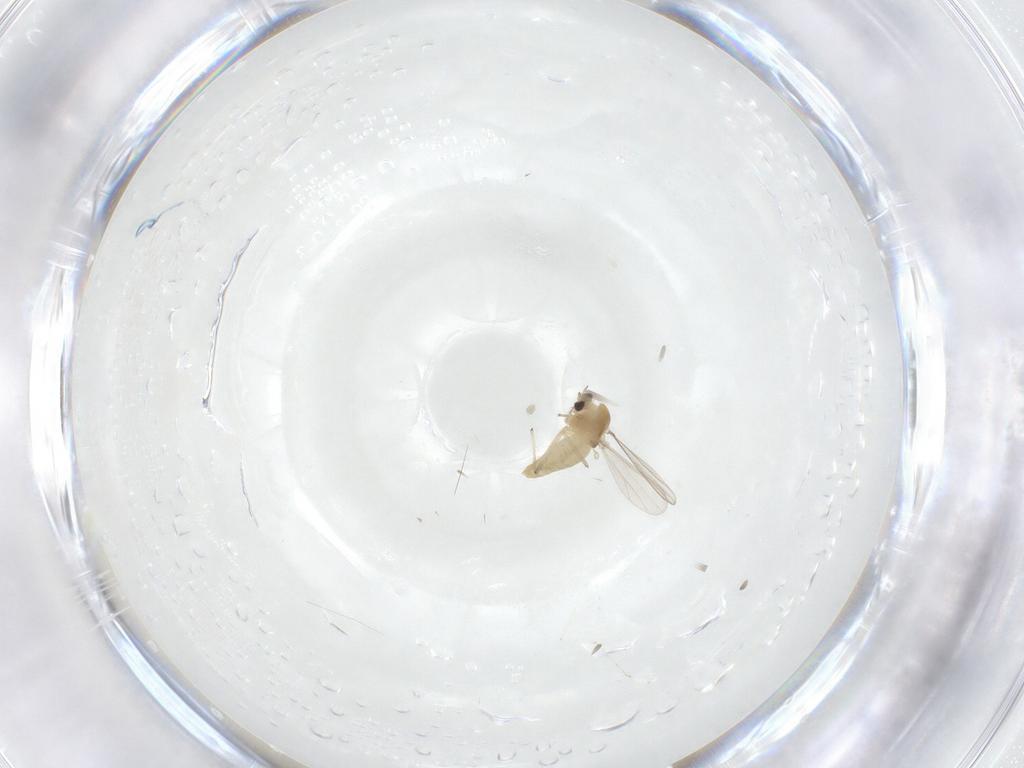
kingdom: Animalia
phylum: Arthropoda
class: Insecta
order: Diptera
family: Chironomidae
